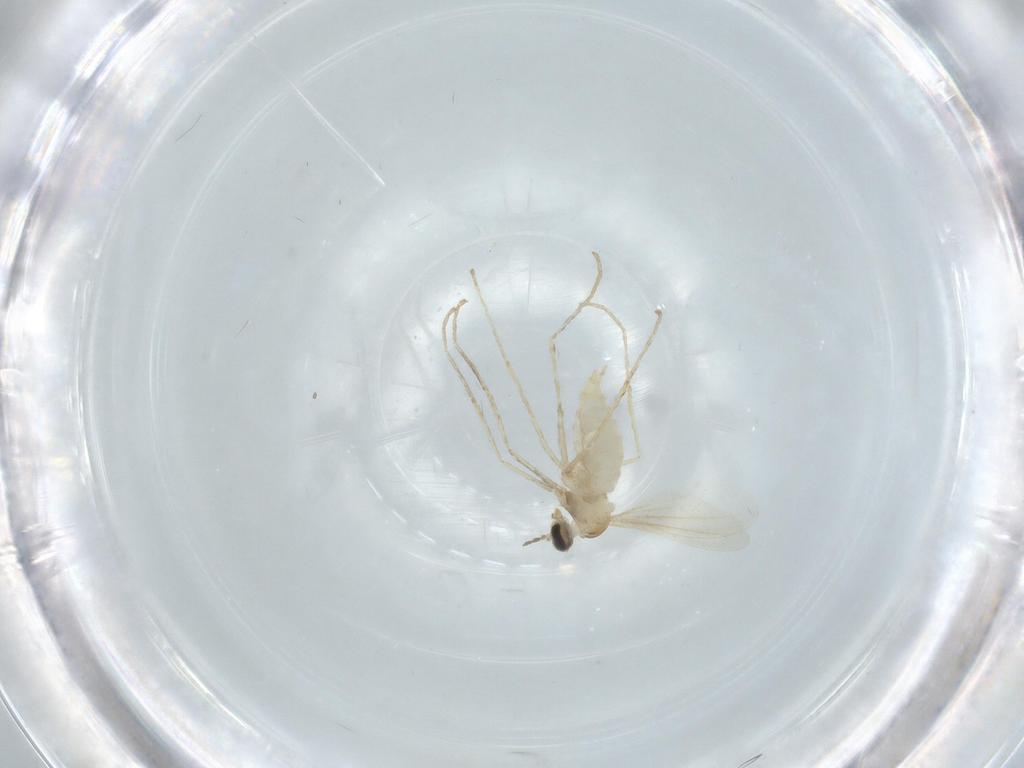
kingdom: Animalia
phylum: Arthropoda
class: Insecta
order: Diptera
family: Cecidomyiidae
